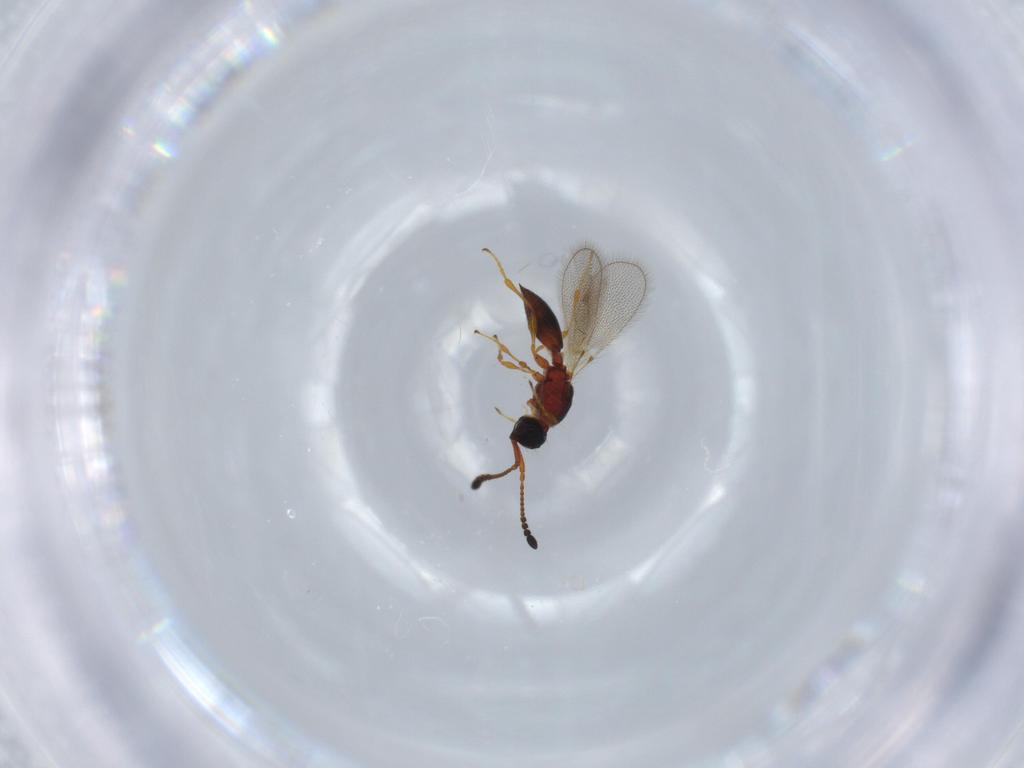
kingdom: Animalia
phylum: Arthropoda
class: Insecta
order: Hymenoptera
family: Diapriidae
